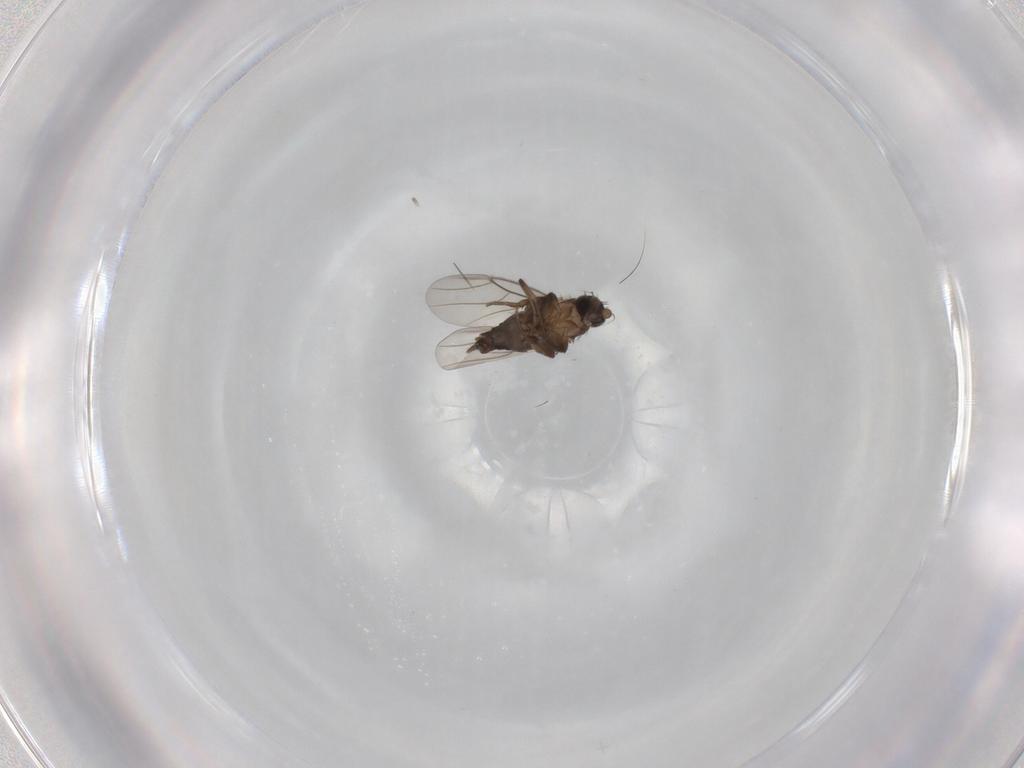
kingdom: Animalia
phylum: Arthropoda
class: Insecta
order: Diptera
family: Phoridae
